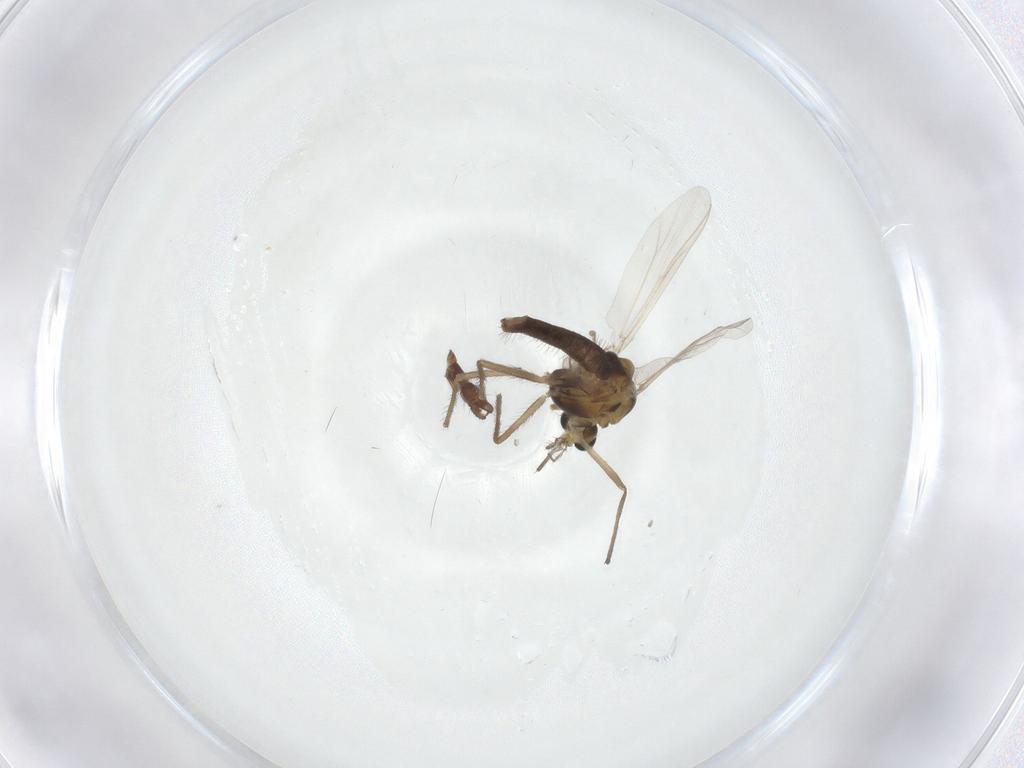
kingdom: Animalia
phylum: Arthropoda
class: Insecta
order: Diptera
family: Chironomidae
